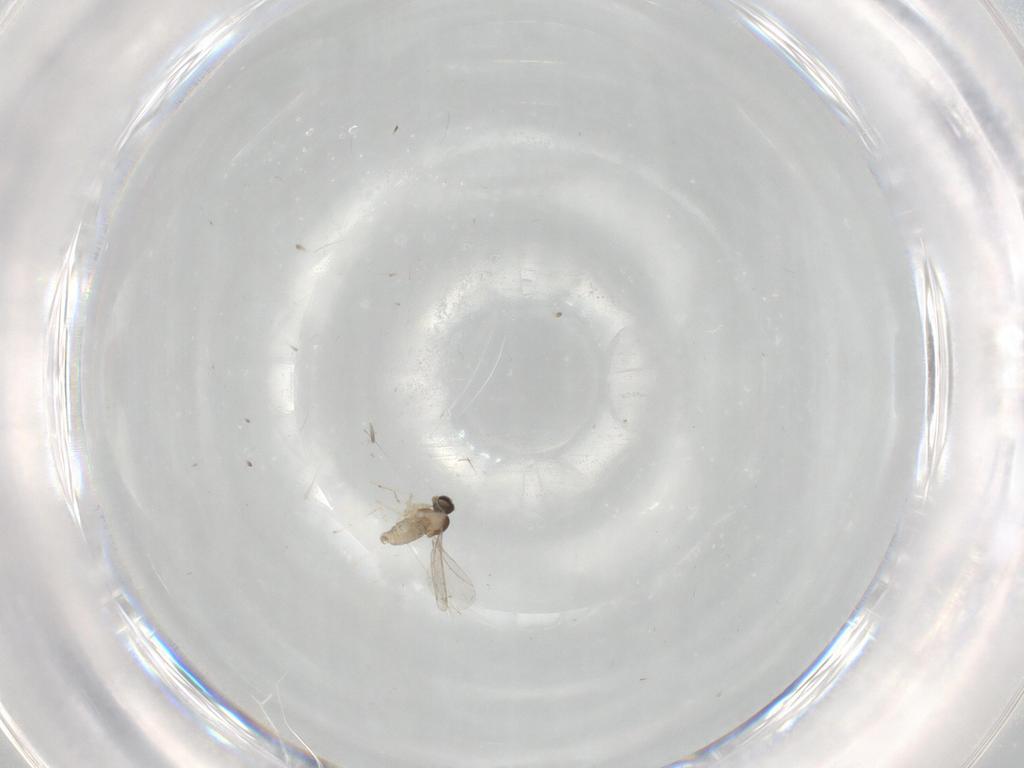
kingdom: Animalia
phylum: Arthropoda
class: Insecta
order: Diptera
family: Cecidomyiidae
